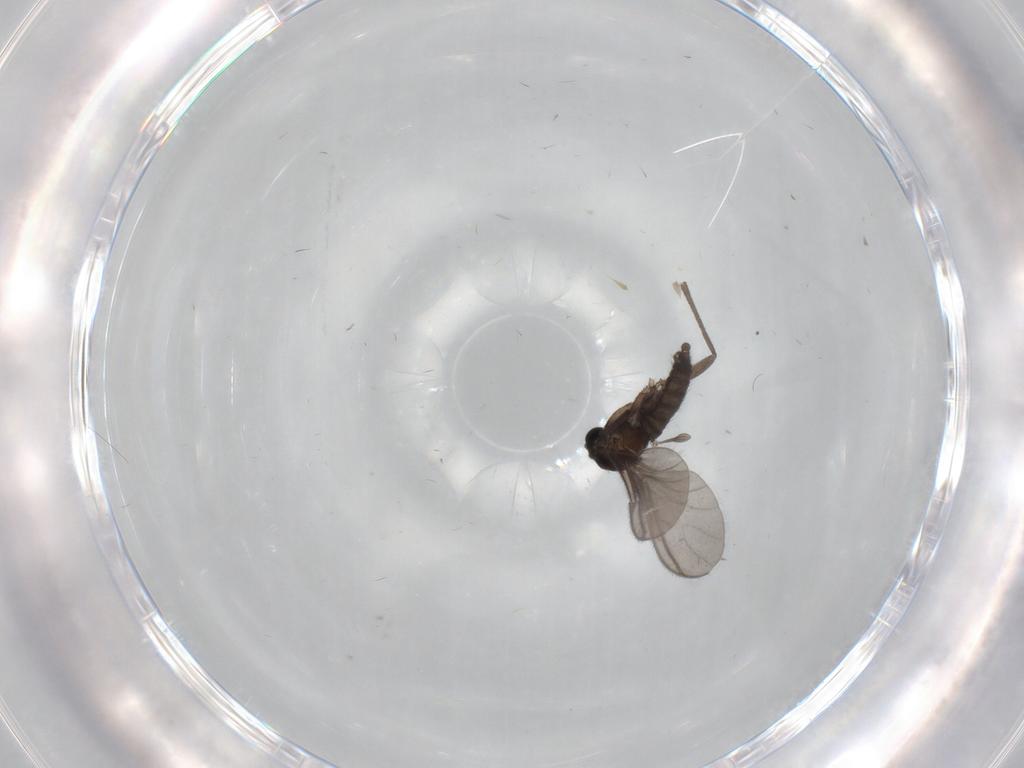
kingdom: Animalia
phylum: Arthropoda
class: Insecta
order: Diptera
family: Sciaridae
